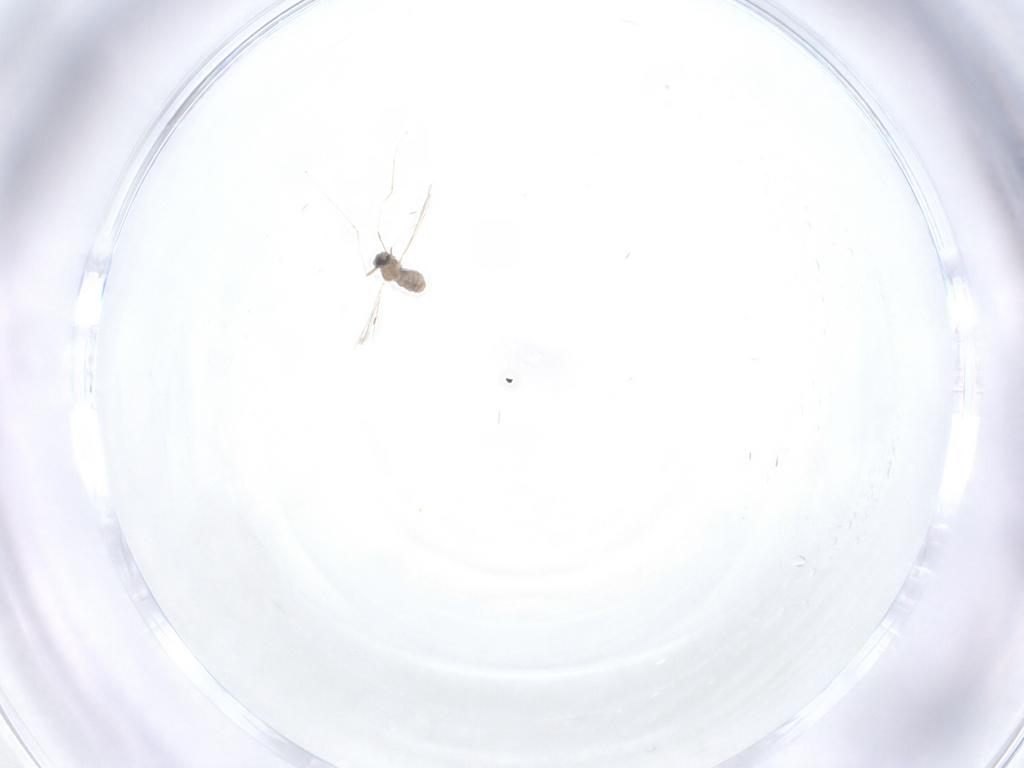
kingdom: Animalia
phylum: Arthropoda
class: Insecta
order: Diptera
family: Cecidomyiidae
